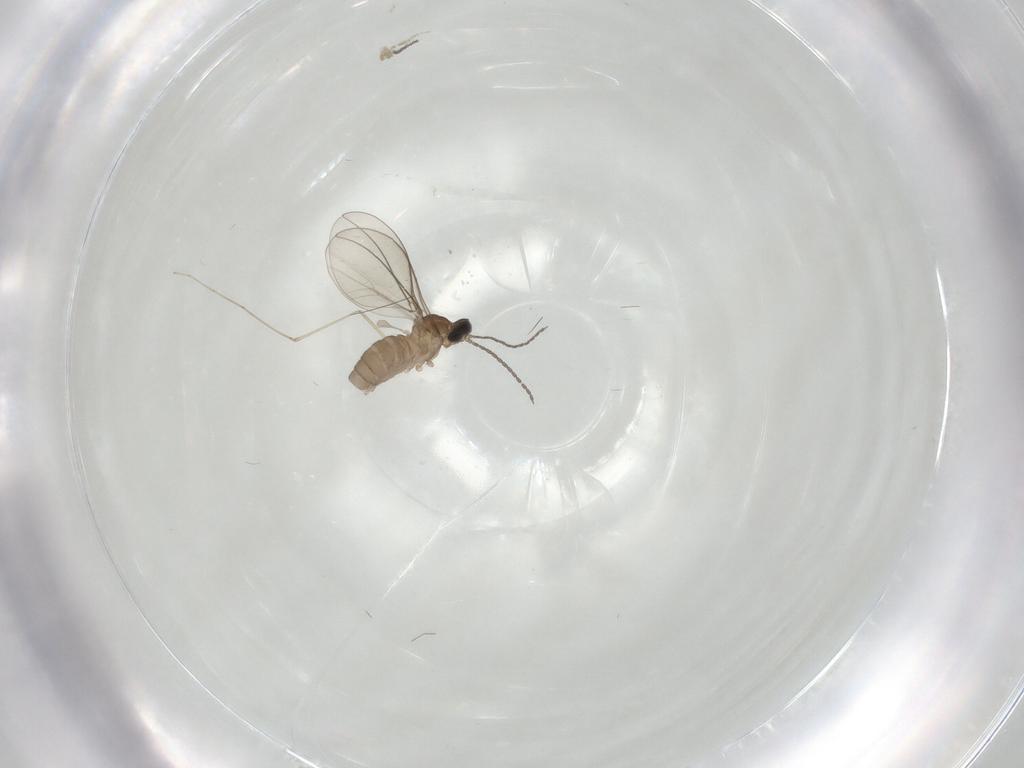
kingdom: Animalia
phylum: Arthropoda
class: Insecta
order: Diptera
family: Cecidomyiidae
